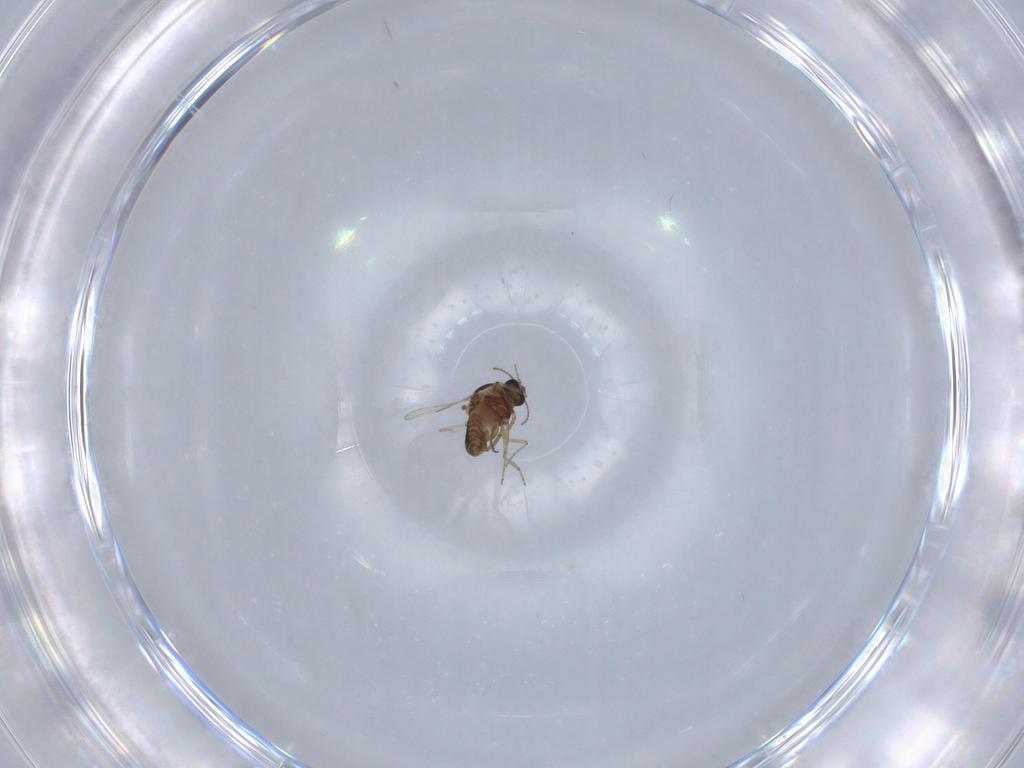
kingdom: Animalia
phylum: Arthropoda
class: Insecta
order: Diptera
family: Ceratopogonidae
